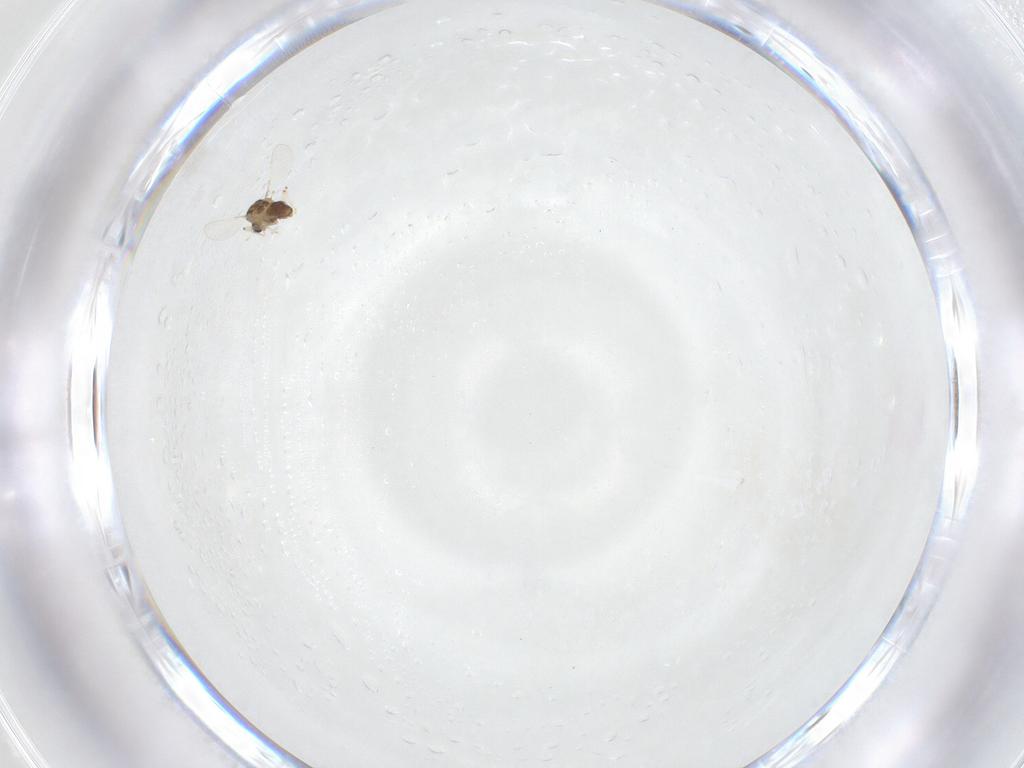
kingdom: Animalia
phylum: Arthropoda
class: Insecta
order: Diptera
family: Chironomidae
